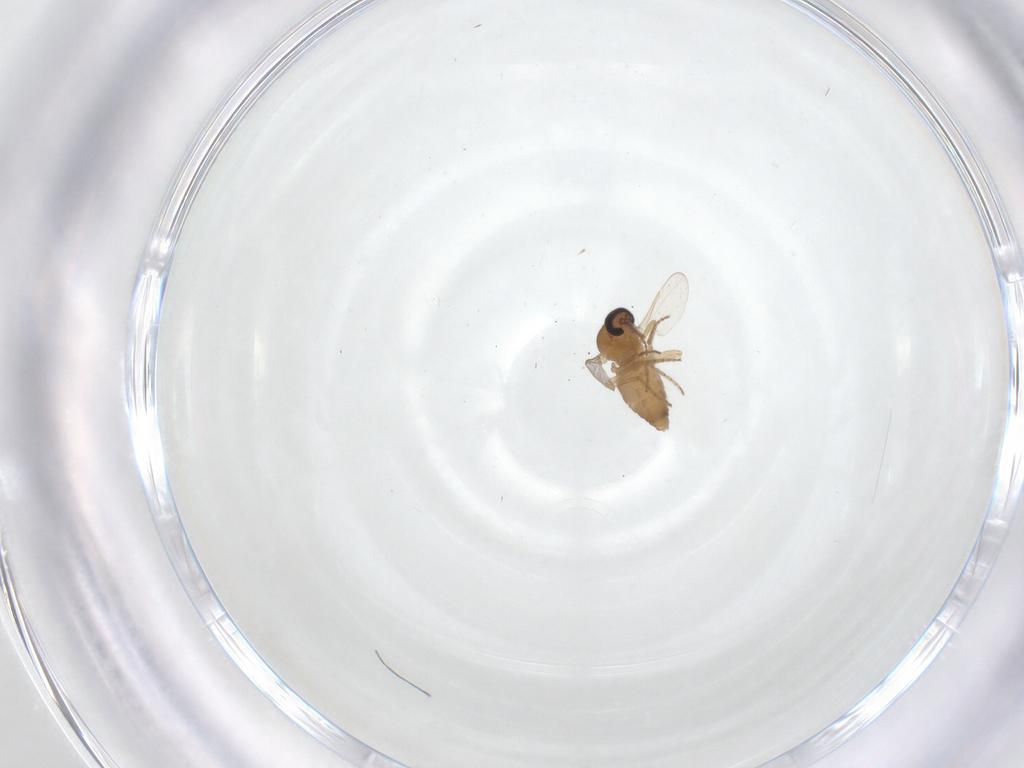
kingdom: Animalia
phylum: Arthropoda
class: Insecta
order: Diptera
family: Ceratopogonidae
